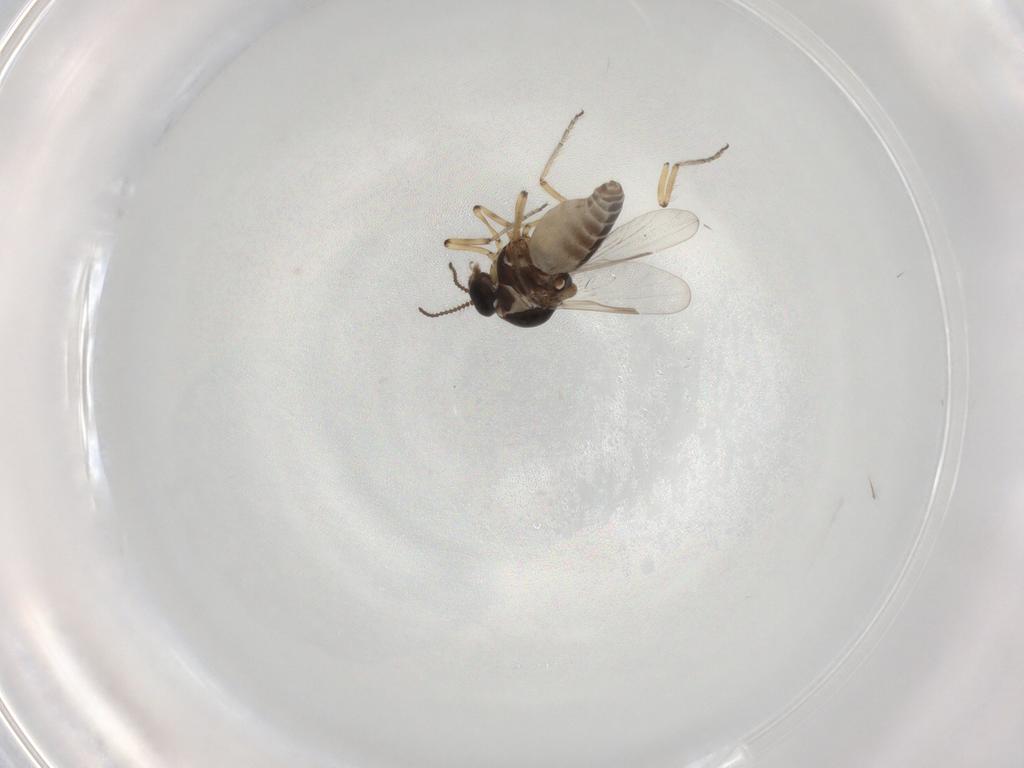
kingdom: Animalia
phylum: Arthropoda
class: Insecta
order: Diptera
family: Ceratopogonidae
